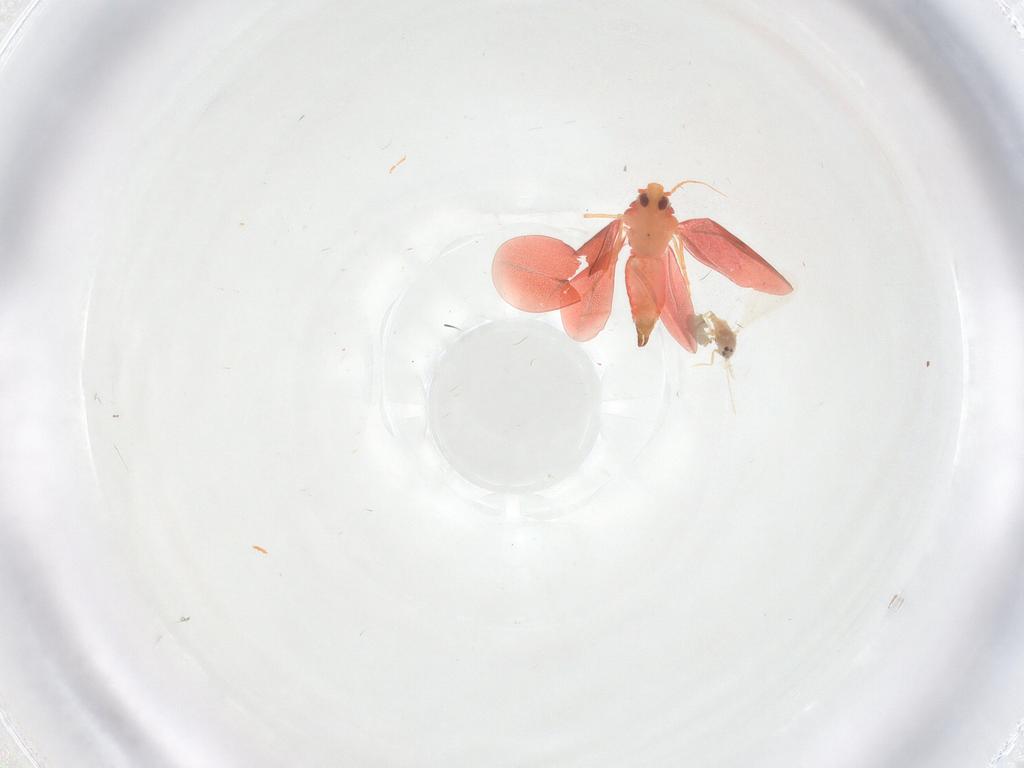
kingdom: Animalia
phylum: Arthropoda
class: Insecta
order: Hemiptera
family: Aleyrodidae
